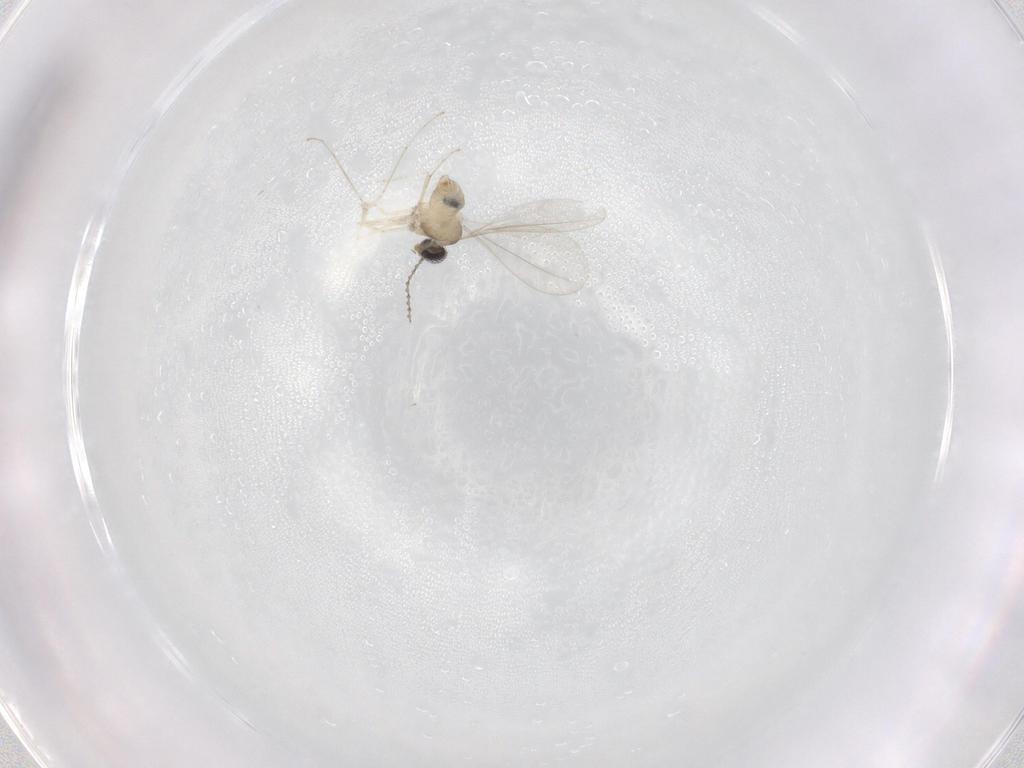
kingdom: Animalia
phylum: Arthropoda
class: Insecta
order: Diptera
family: Cecidomyiidae
